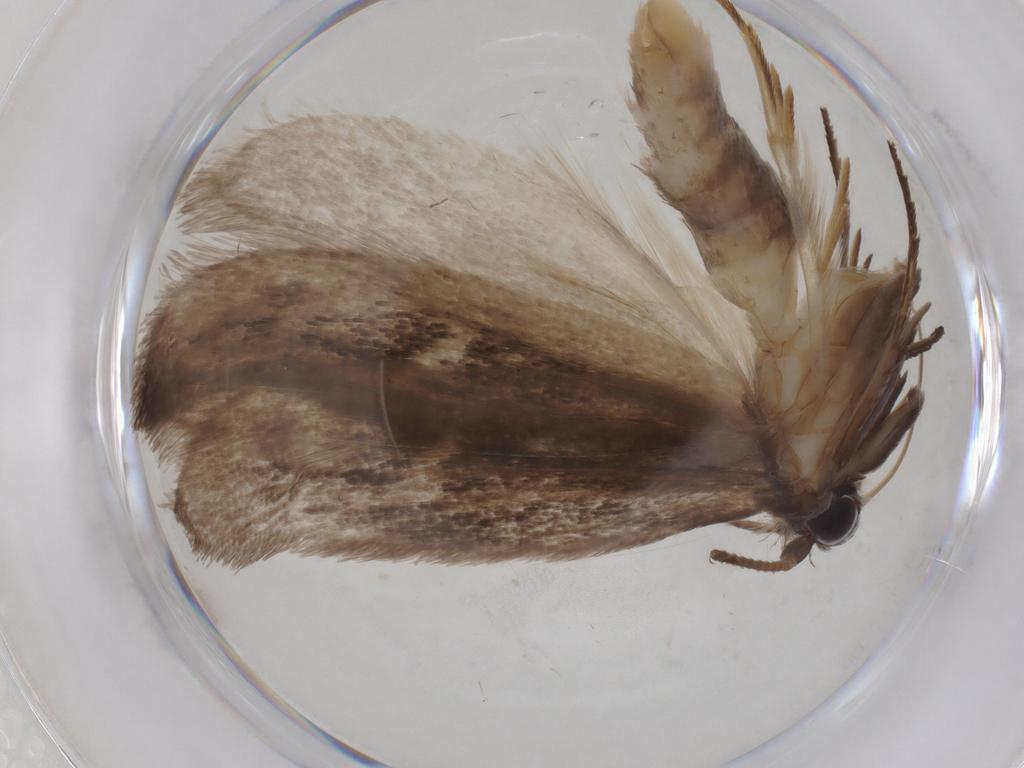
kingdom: Animalia
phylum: Arthropoda
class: Insecta
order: Lepidoptera
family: Roeslerstammiidae
